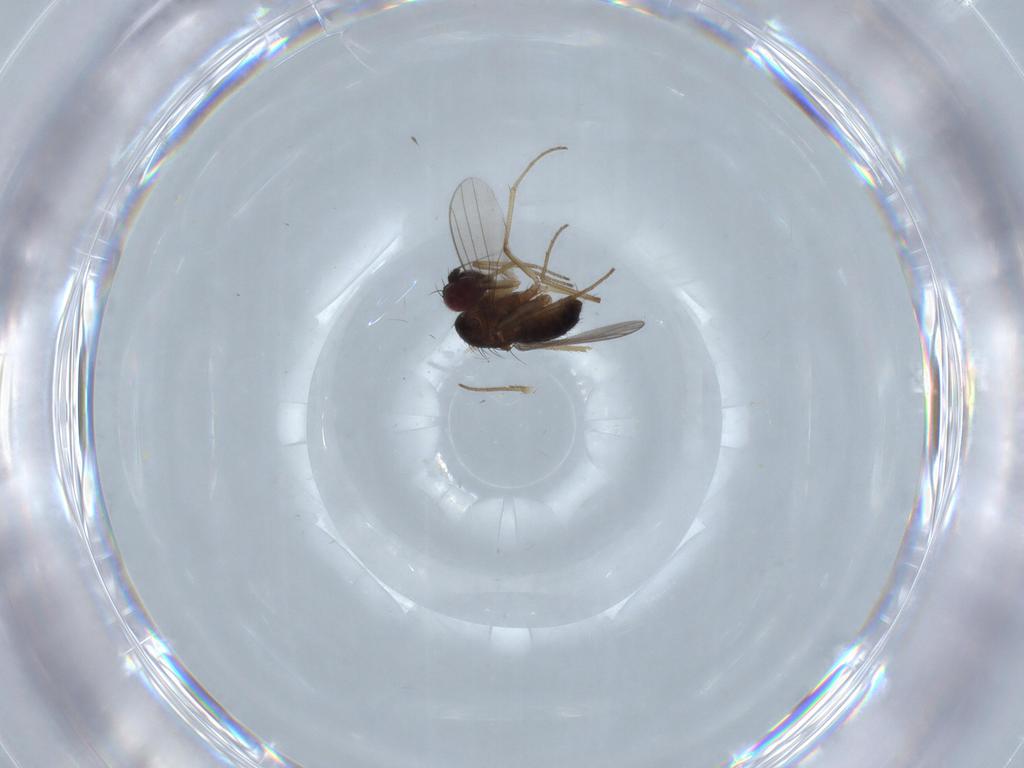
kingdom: Animalia
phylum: Arthropoda
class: Insecta
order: Diptera
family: Dolichopodidae
